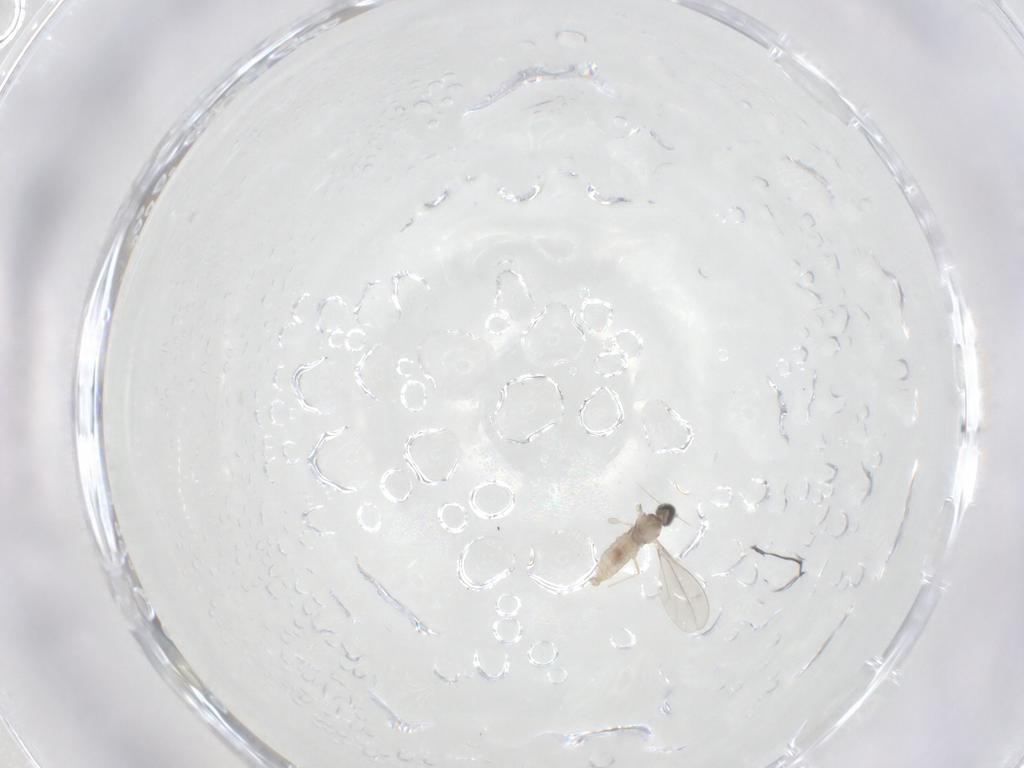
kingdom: Animalia
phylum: Arthropoda
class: Insecta
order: Diptera
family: Cecidomyiidae
